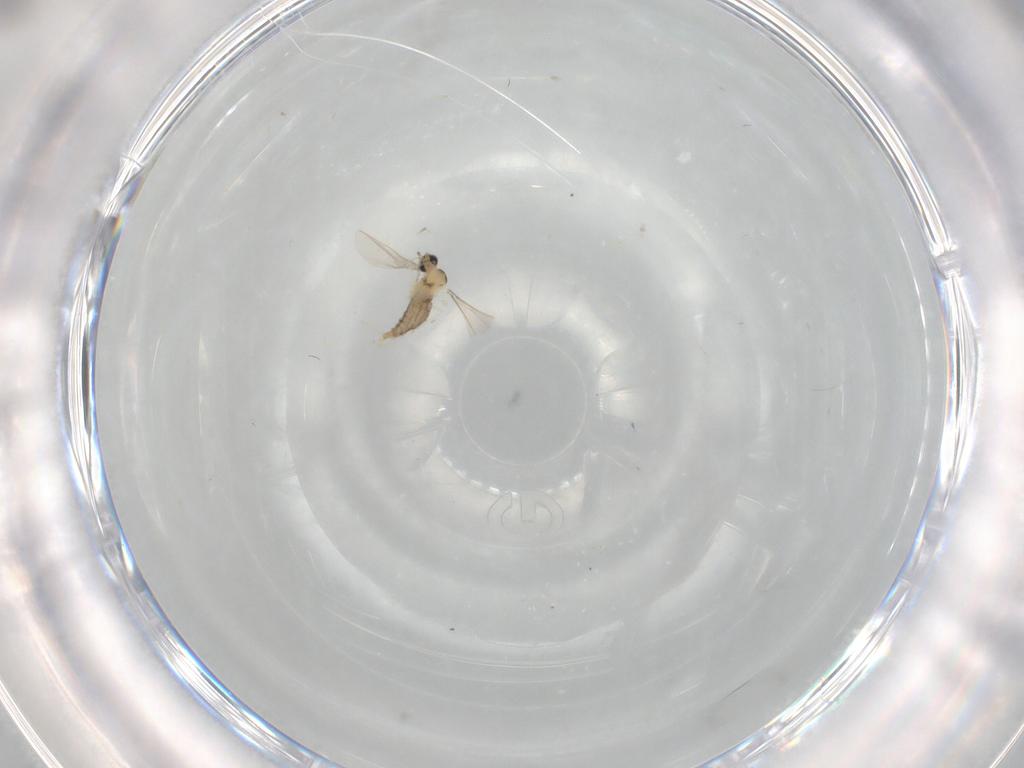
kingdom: Animalia
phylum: Arthropoda
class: Insecta
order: Diptera
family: Cecidomyiidae
